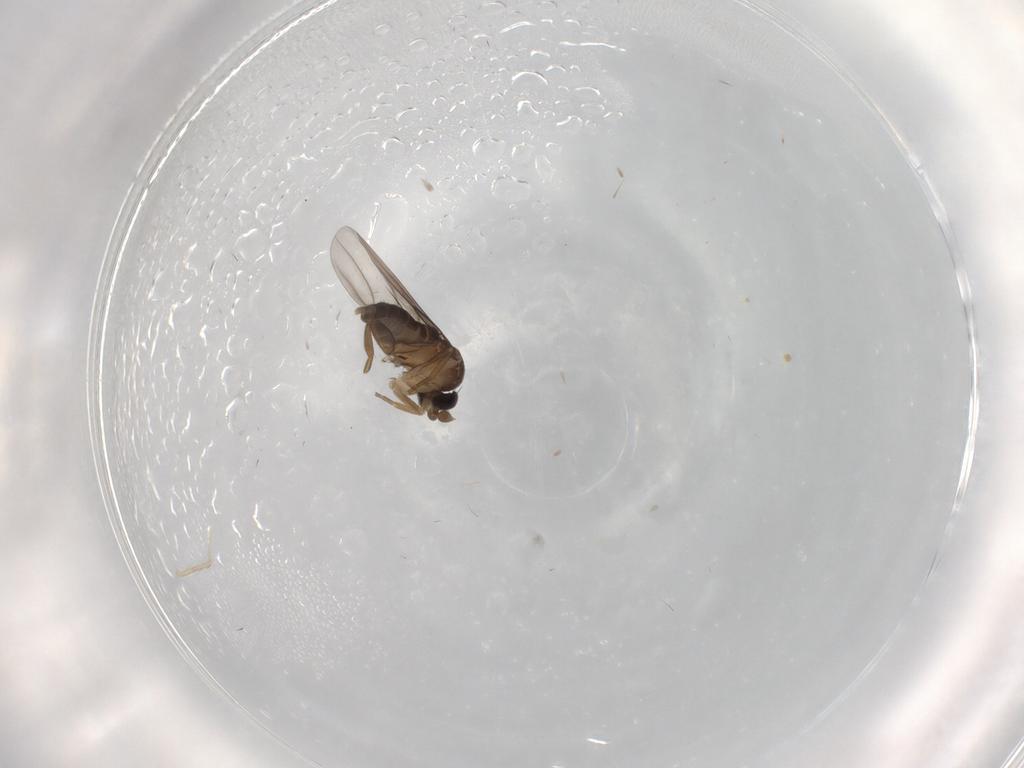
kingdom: Animalia
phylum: Arthropoda
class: Insecta
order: Diptera
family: Phoridae
